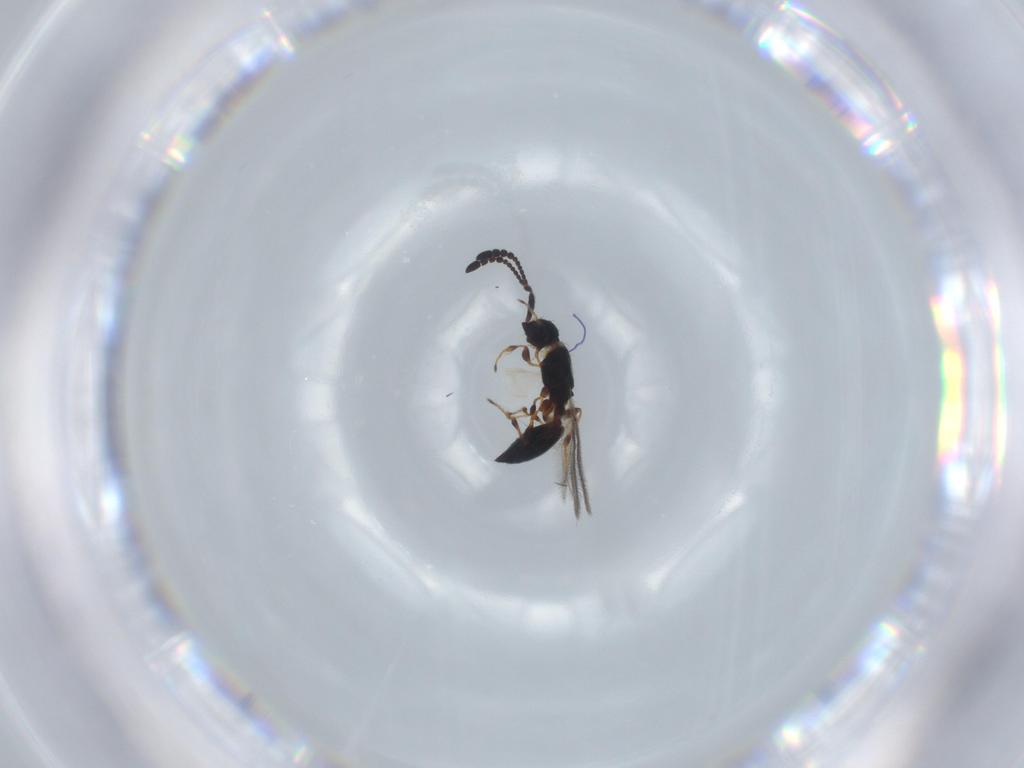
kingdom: Animalia
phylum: Arthropoda
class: Insecta
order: Hymenoptera
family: Diapriidae
